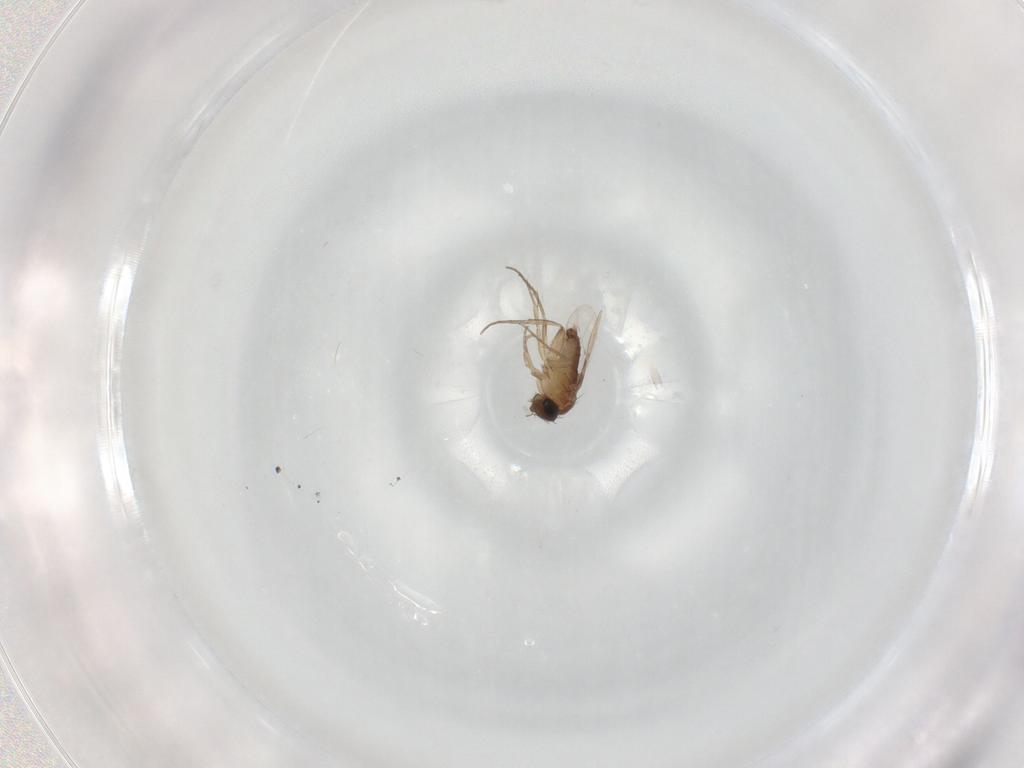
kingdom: Animalia
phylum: Arthropoda
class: Insecta
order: Diptera
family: Phoridae
